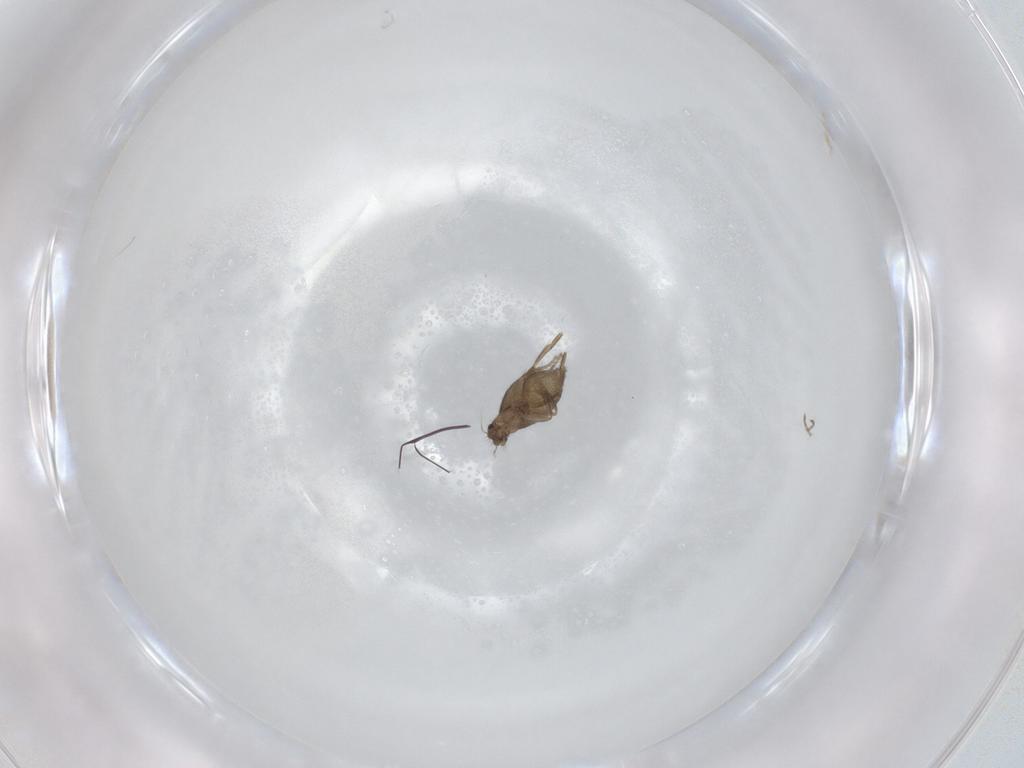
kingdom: Animalia
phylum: Arthropoda
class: Insecta
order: Diptera
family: Phoridae
